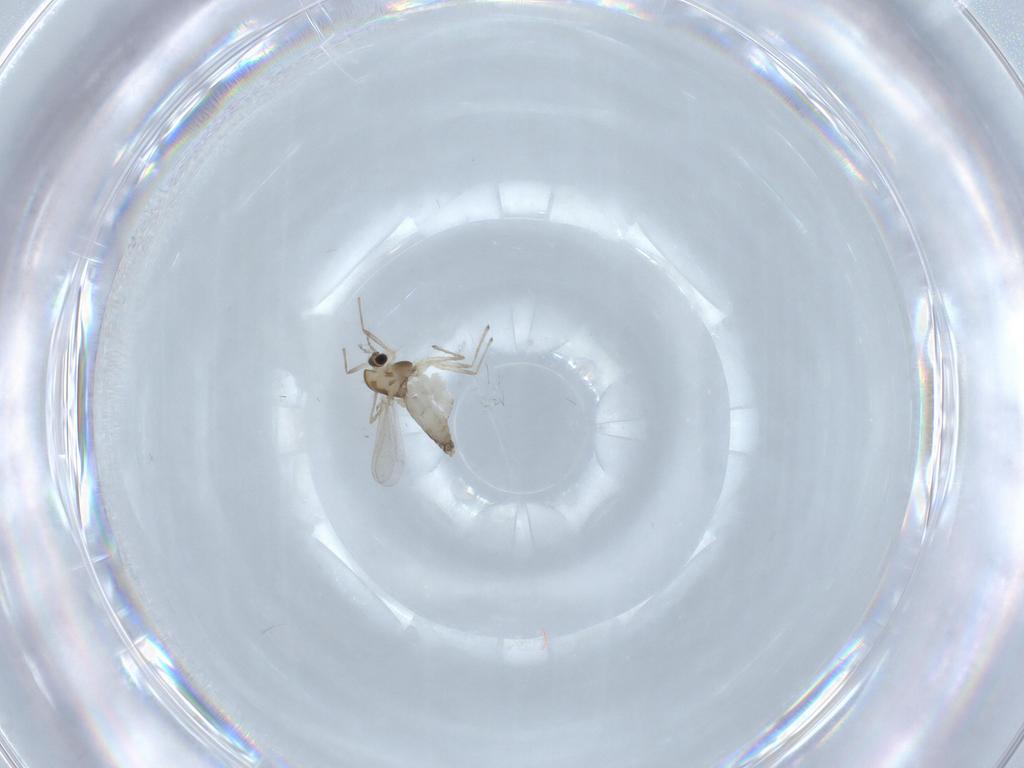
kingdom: Animalia
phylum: Arthropoda
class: Insecta
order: Diptera
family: Chironomidae
